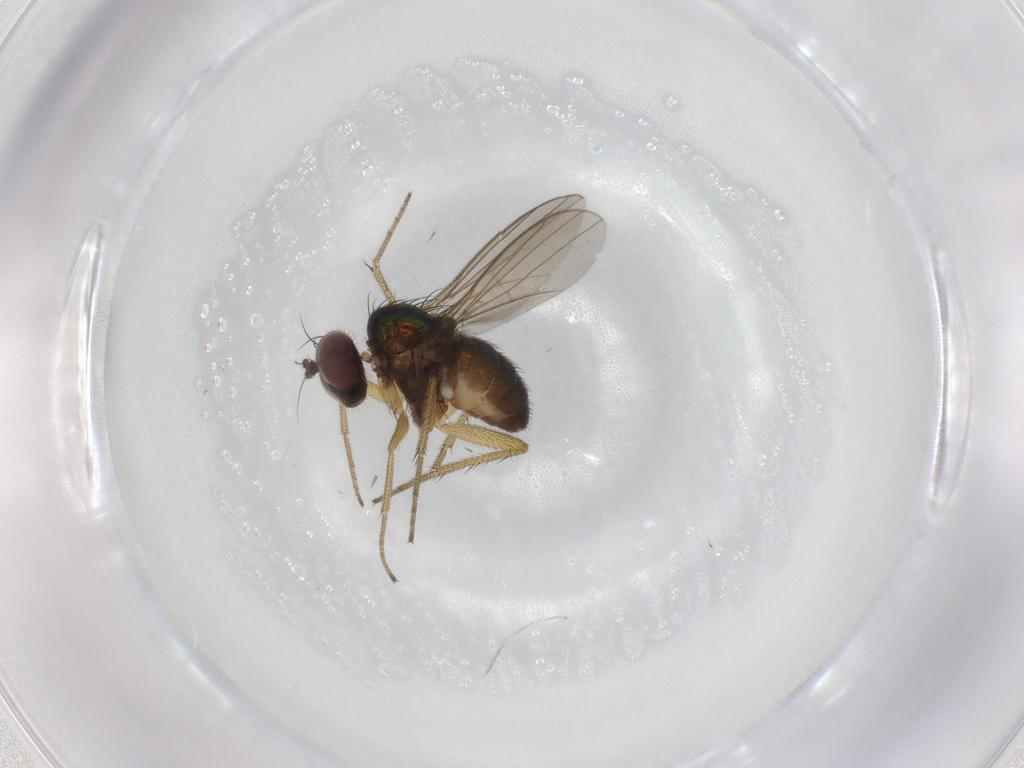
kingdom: Animalia
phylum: Arthropoda
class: Insecta
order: Diptera
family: Dolichopodidae
